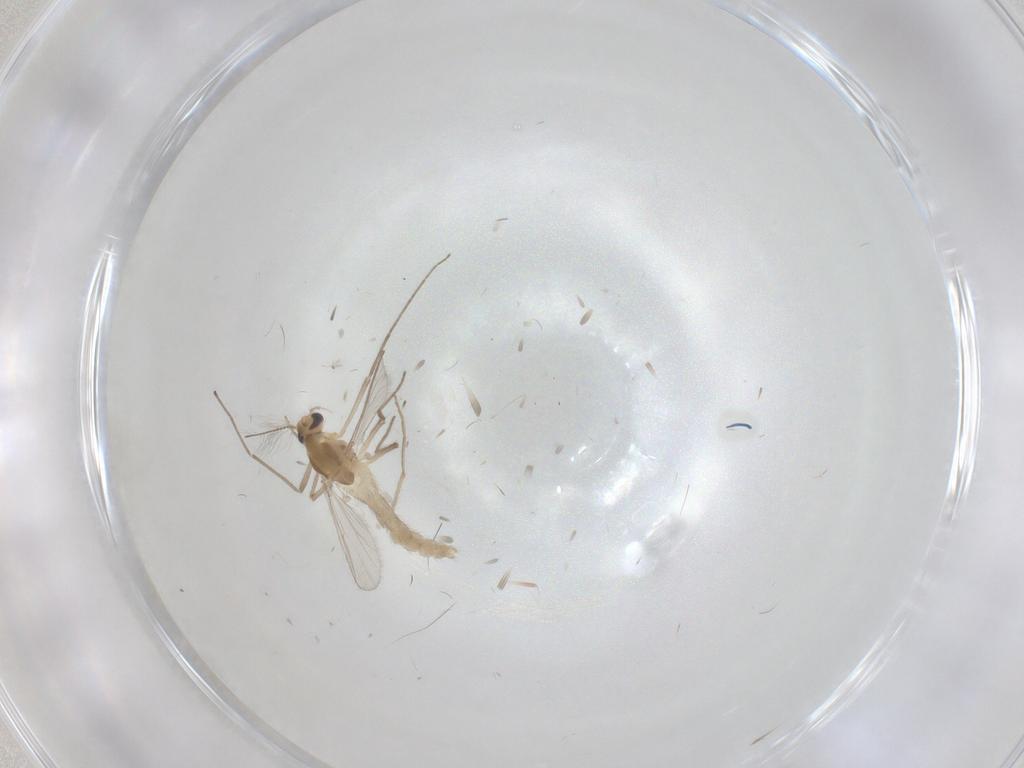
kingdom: Animalia
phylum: Arthropoda
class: Insecta
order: Diptera
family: Chironomidae
